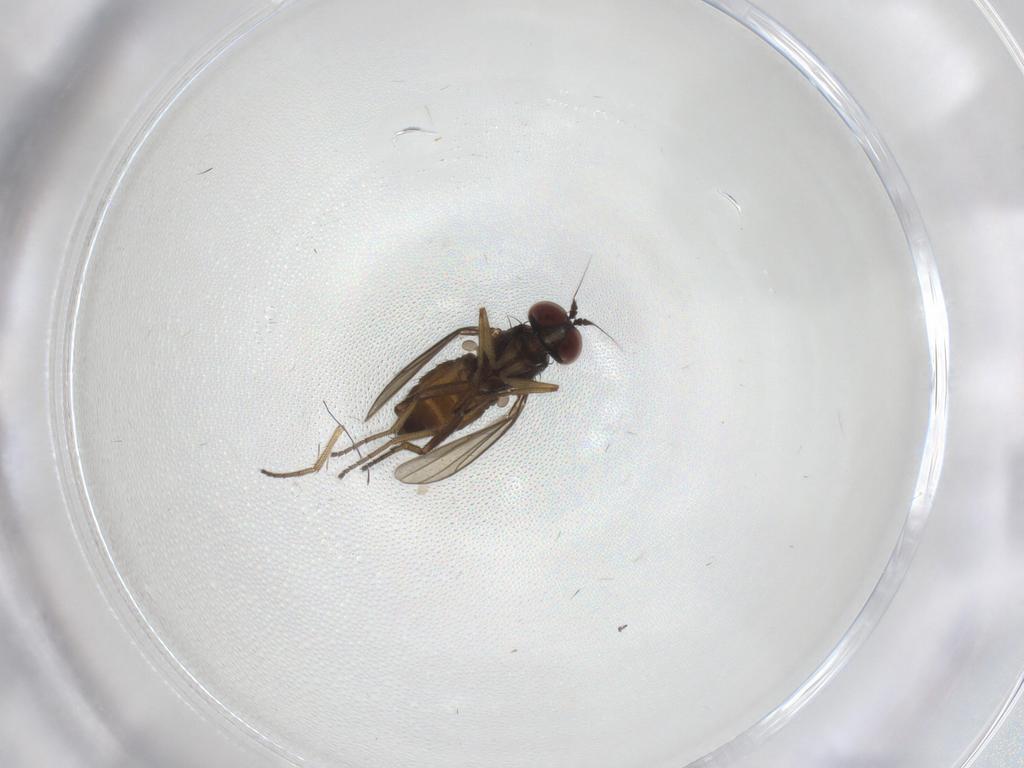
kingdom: Animalia
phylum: Arthropoda
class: Insecta
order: Diptera
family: Dolichopodidae
